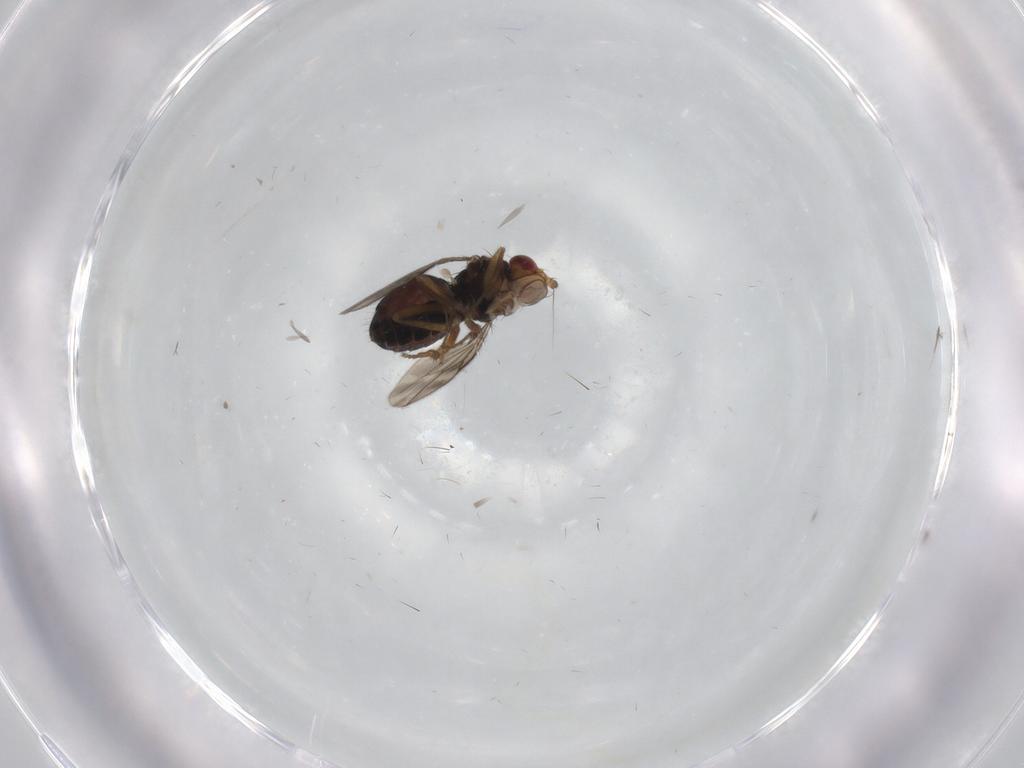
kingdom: Animalia
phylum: Arthropoda
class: Insecta
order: Diptera
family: Sphaeroceridae
